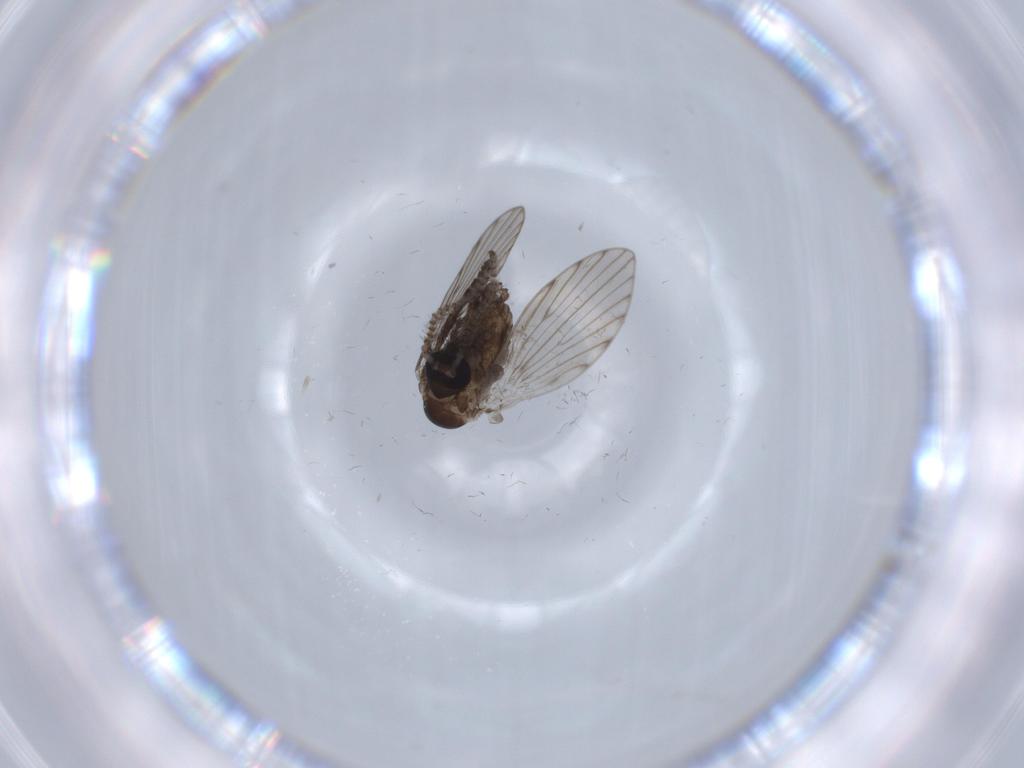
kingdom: Animalia
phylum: Arthropoda
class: Insecta
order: Diptera
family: Psychodidae
